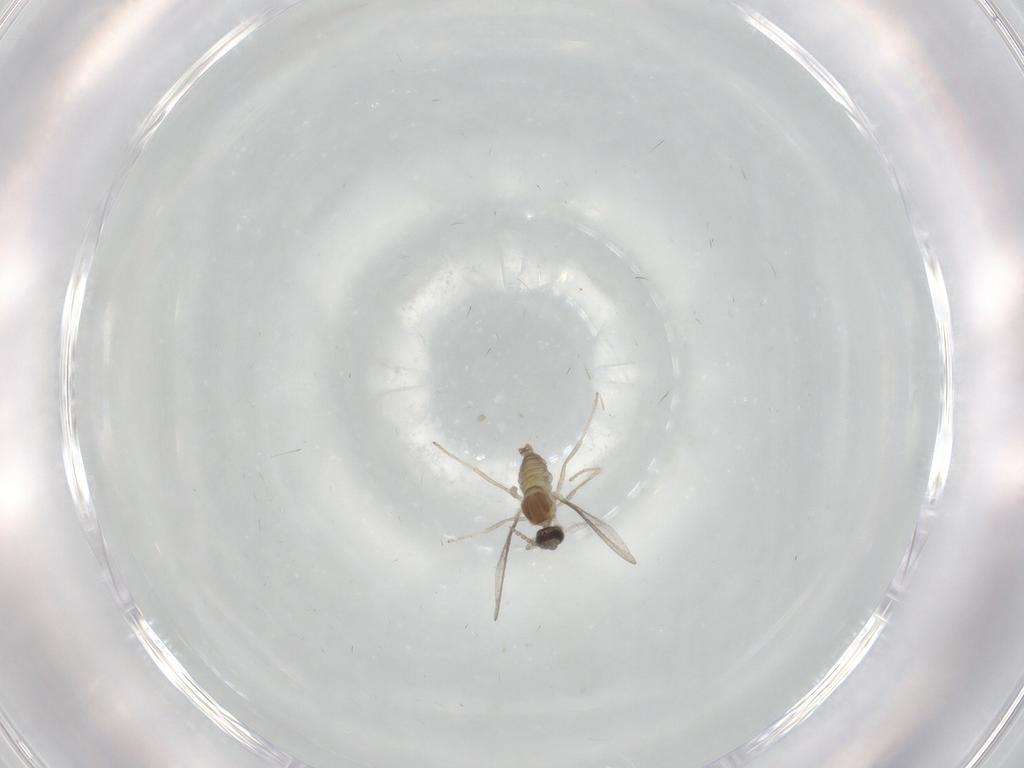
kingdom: Animalia
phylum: Arthropoda
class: Insecta
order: Diptera
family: Cecidomyiidae
